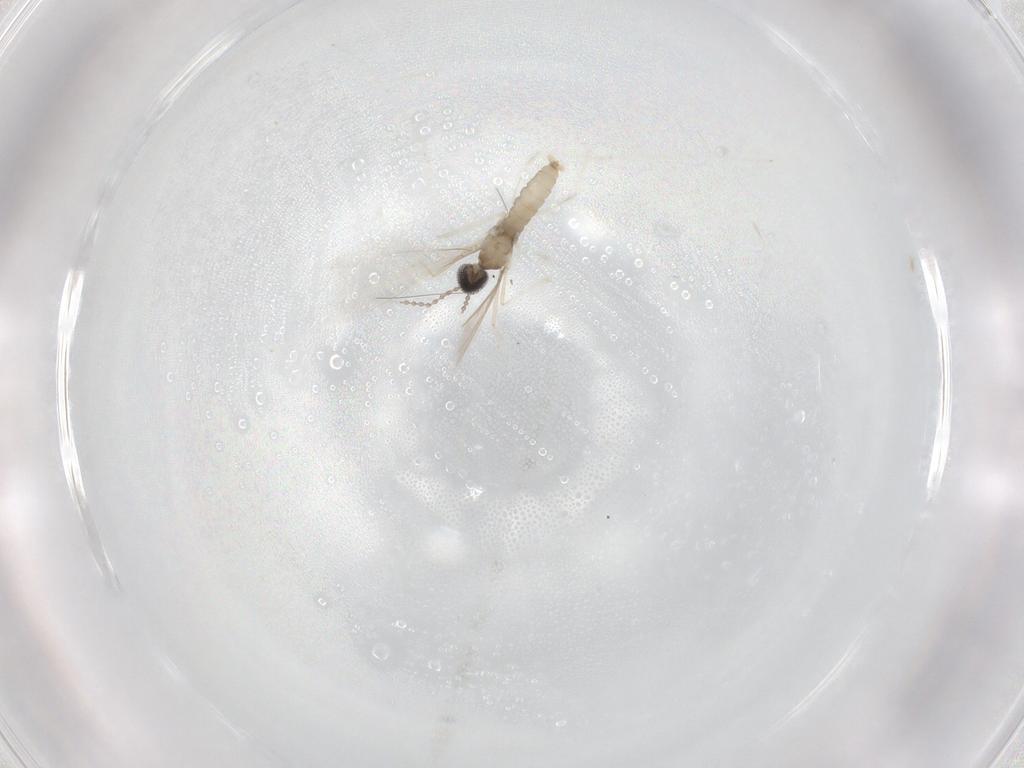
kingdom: Animalia
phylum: Arthropoda
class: Insecta
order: Diptera
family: Cecidomyiidae
